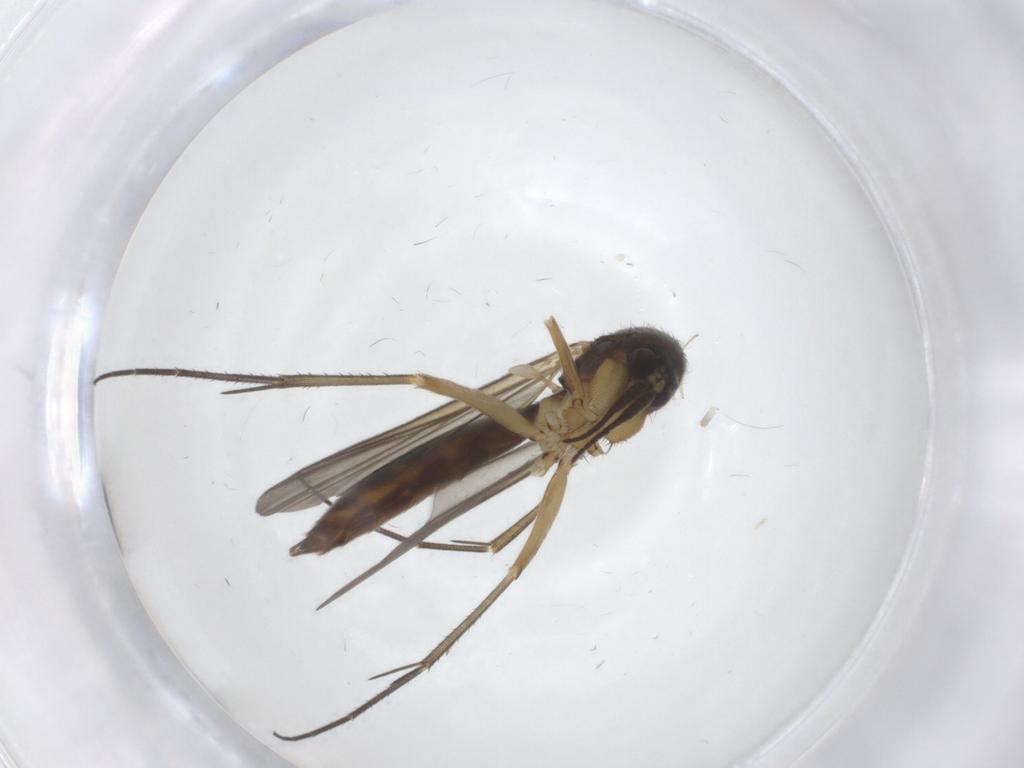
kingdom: Animalia
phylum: Arthropoda
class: Insecta
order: Diptera
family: Mycetophilidae
